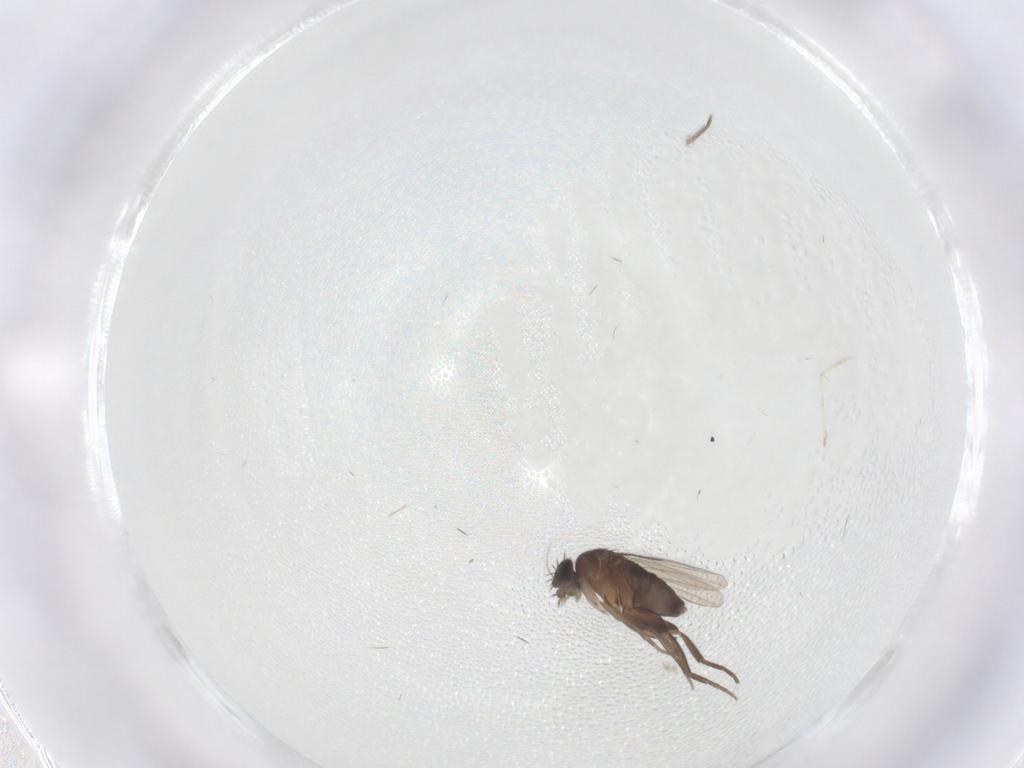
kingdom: Animalia
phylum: Arthropoda
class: Insecta
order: Diptera
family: Phoridae
